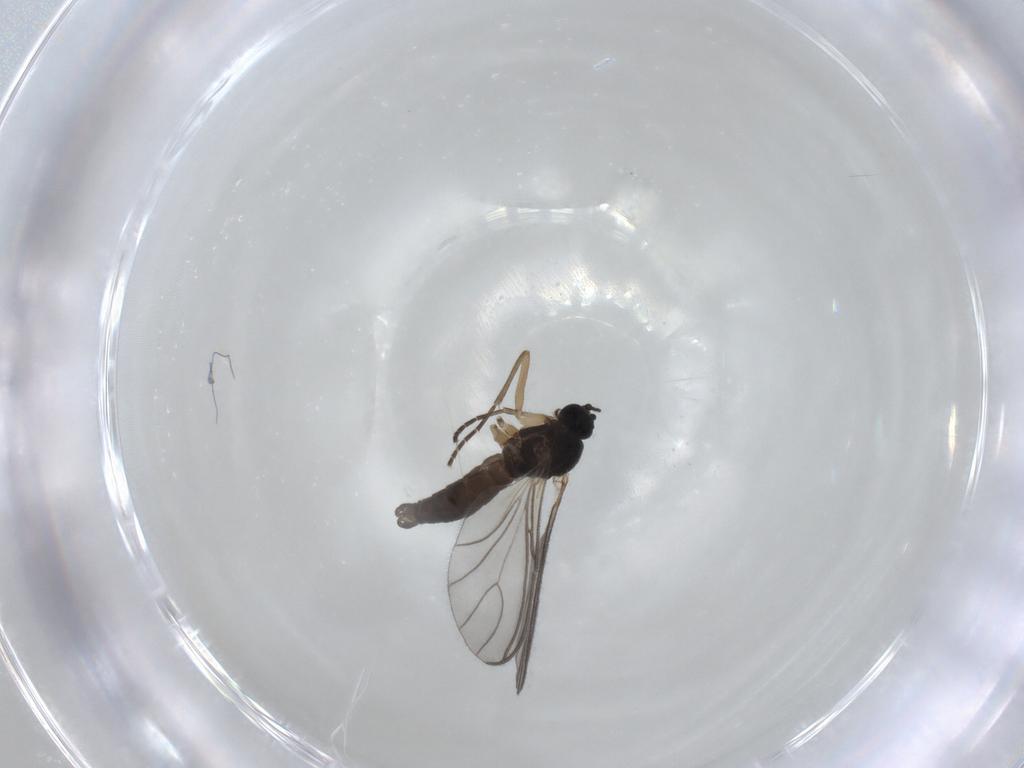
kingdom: Animalia
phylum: Arthropoda
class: Insecta
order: Diptera
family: Sciaridae
